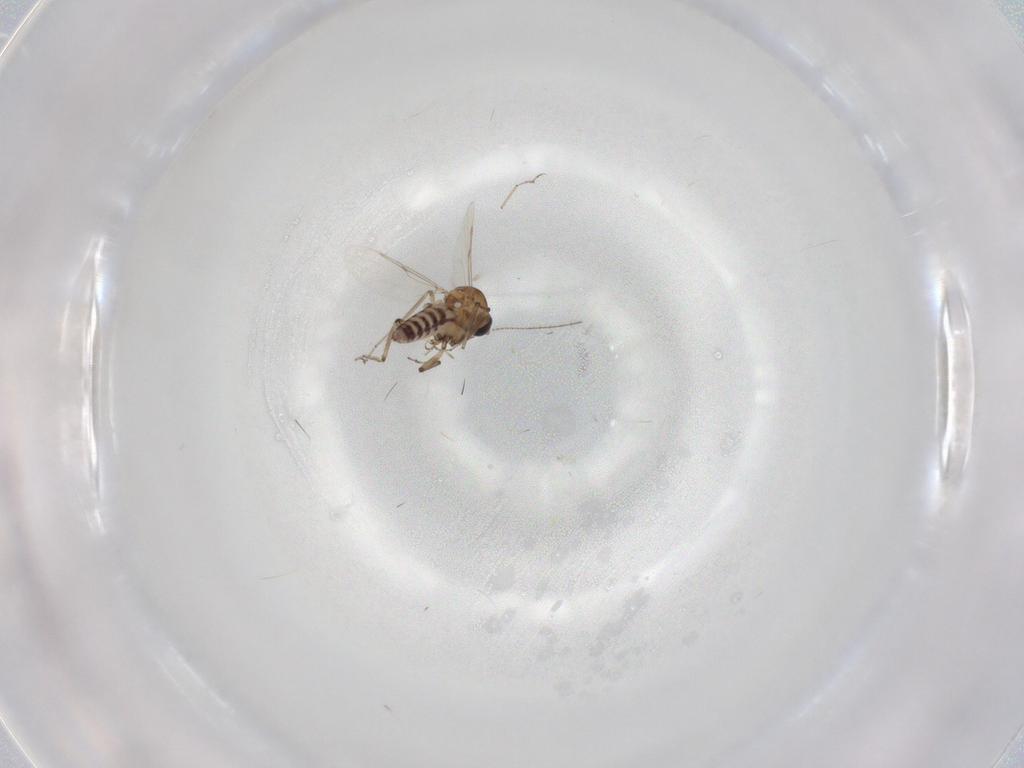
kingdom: Animalia
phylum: Arthropoda
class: Insecta
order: Diptera
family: Ceratopogonidae
